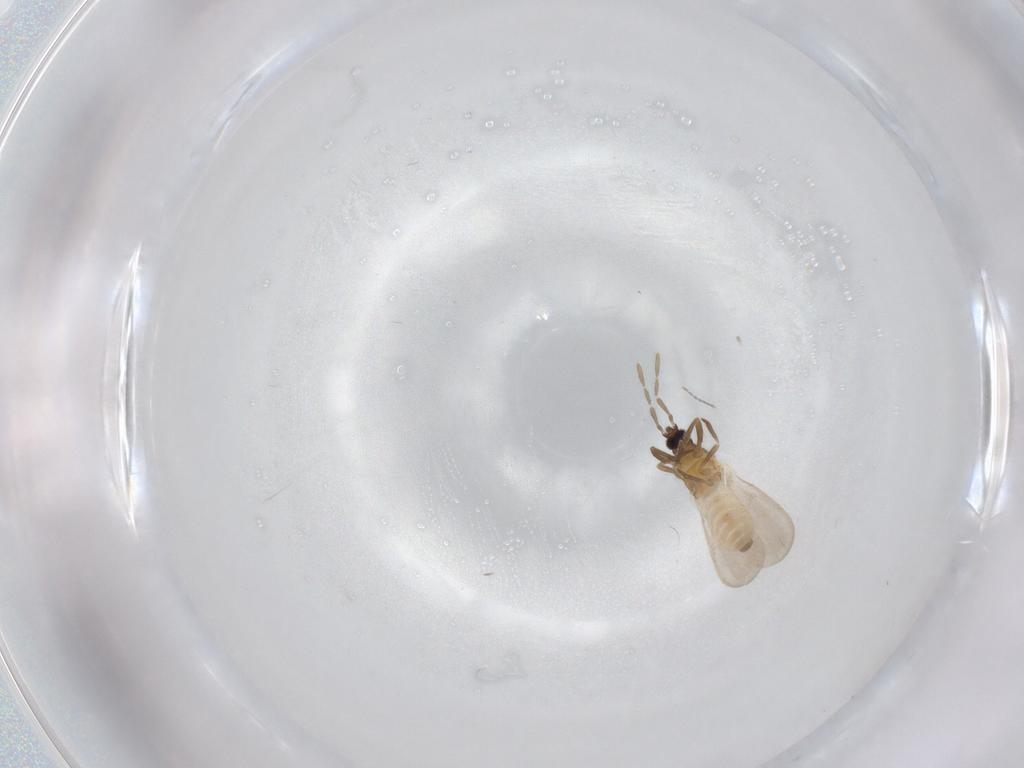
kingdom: Animalia
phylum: Arthropoda
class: Insecta
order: Hemiptera
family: Enicocephalidae
